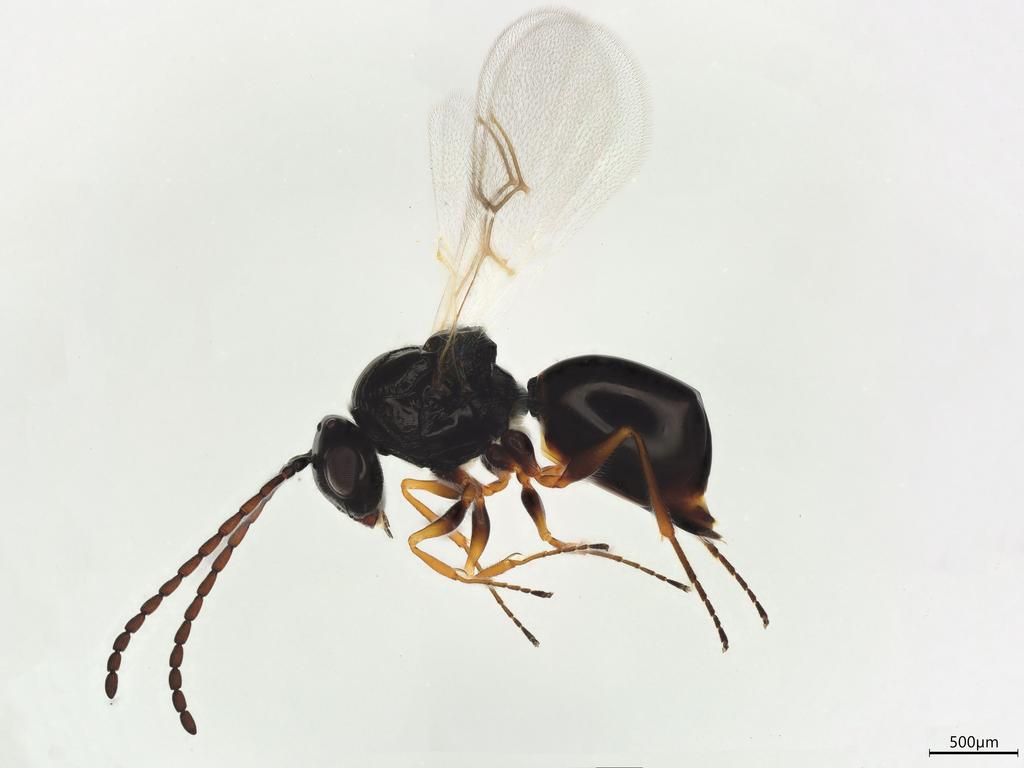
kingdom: Animalia
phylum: Arthropoda
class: Insecta
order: Hymenoptera
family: Figitidae
